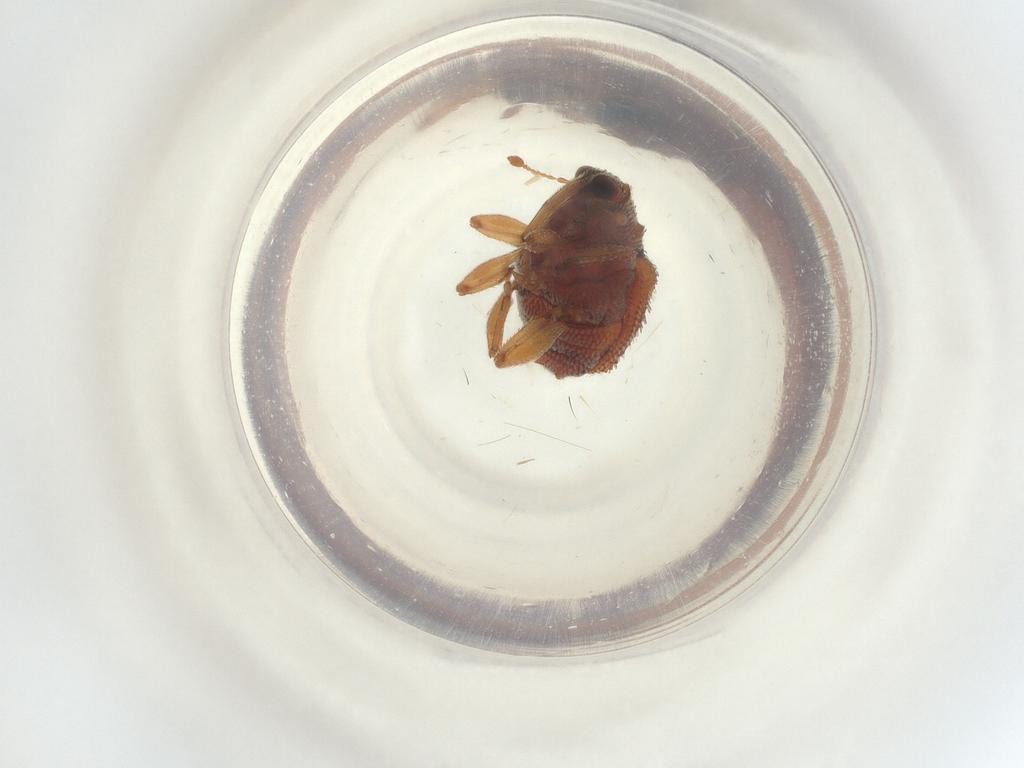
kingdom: Animalia
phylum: Arthropoda
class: Insecta
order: Coleoptera
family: Curculionidae
